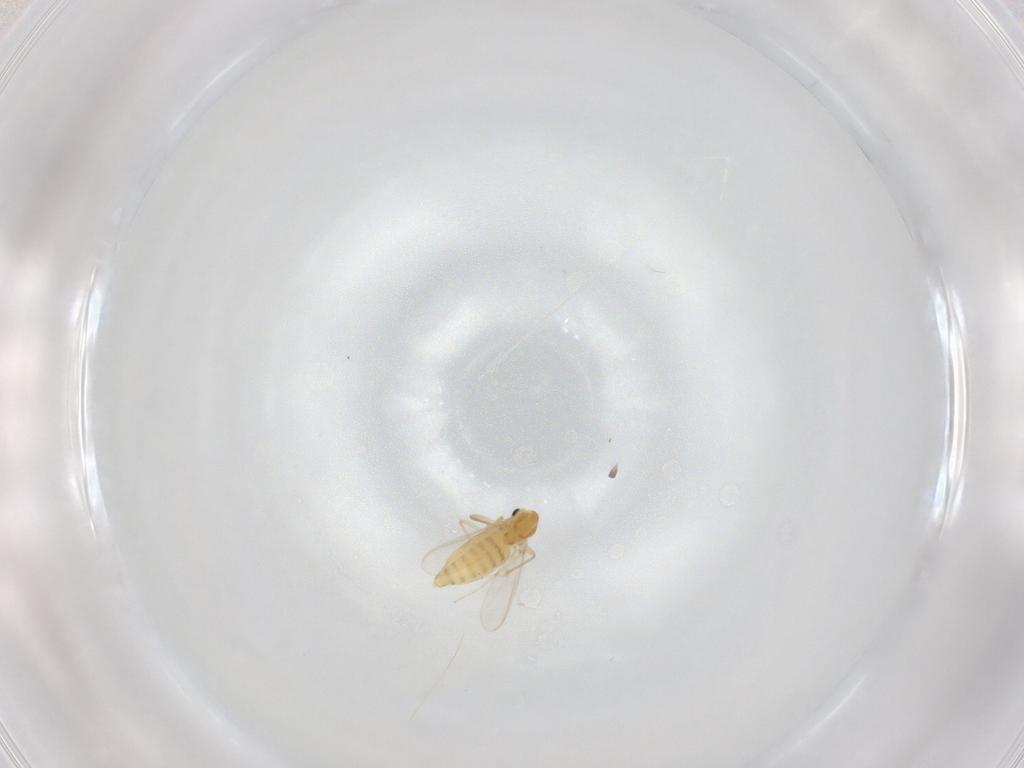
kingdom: Animalia
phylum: Arthropoda
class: Insecta
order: Diptera
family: Chironomidae
